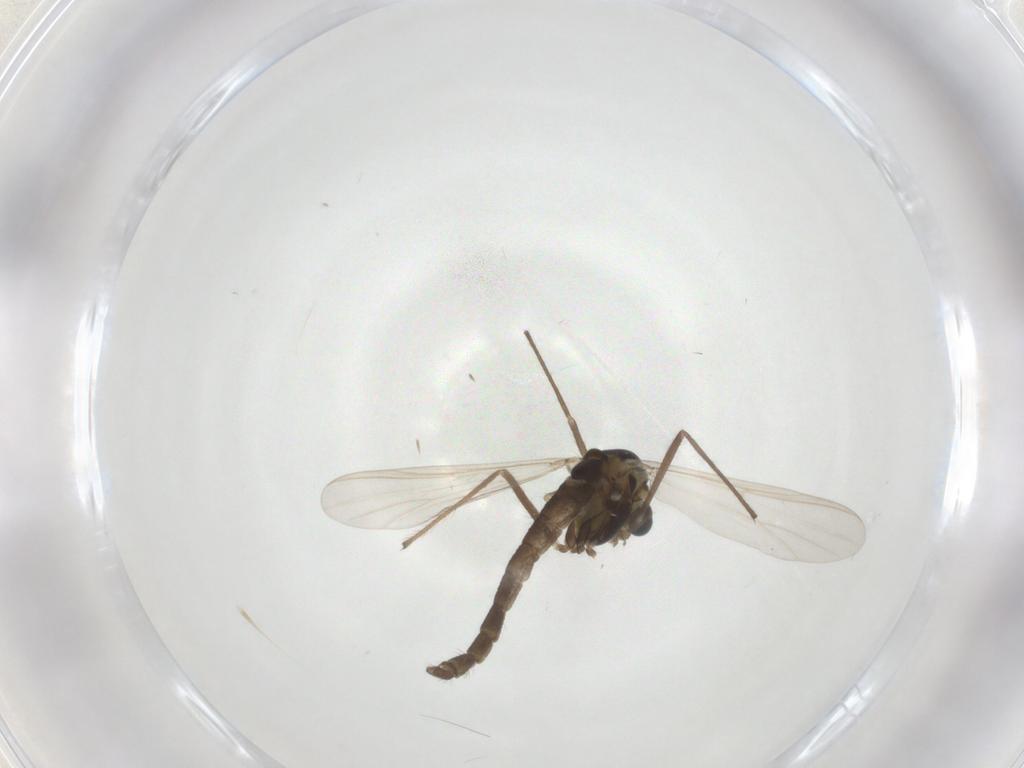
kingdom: Animalia
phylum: Arthropoda
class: Insecta
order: Diptera
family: Chironomidae
